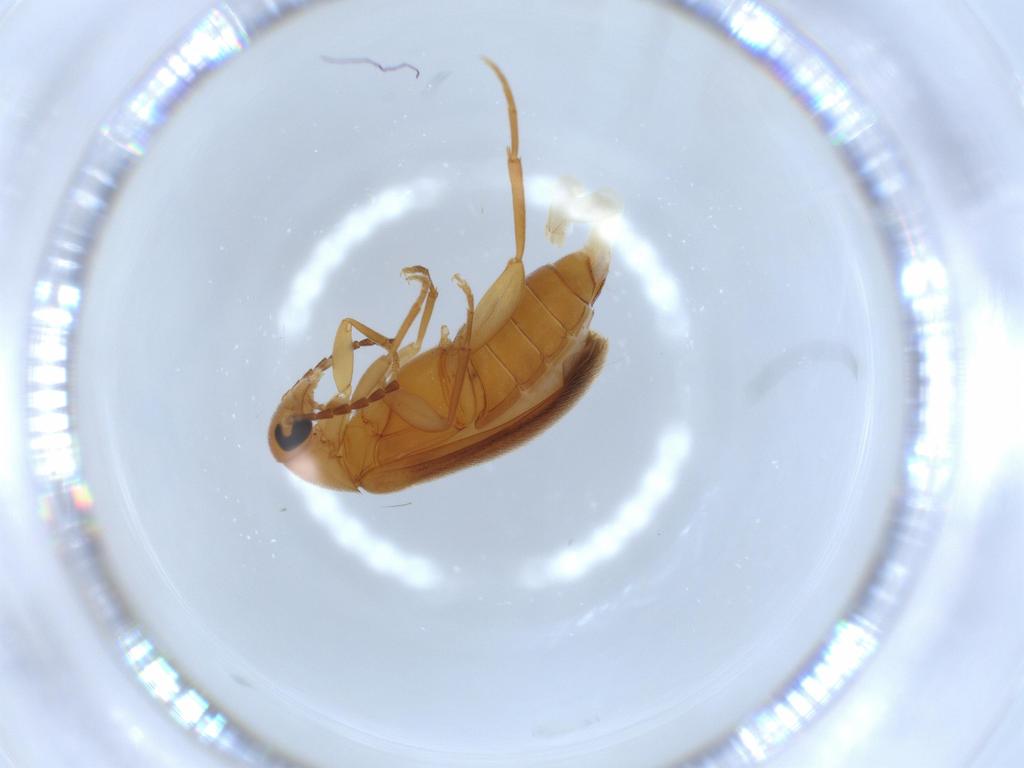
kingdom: Animalia
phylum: Arthropoda
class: Insecta
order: Coleoptera
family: Scraptiidae
